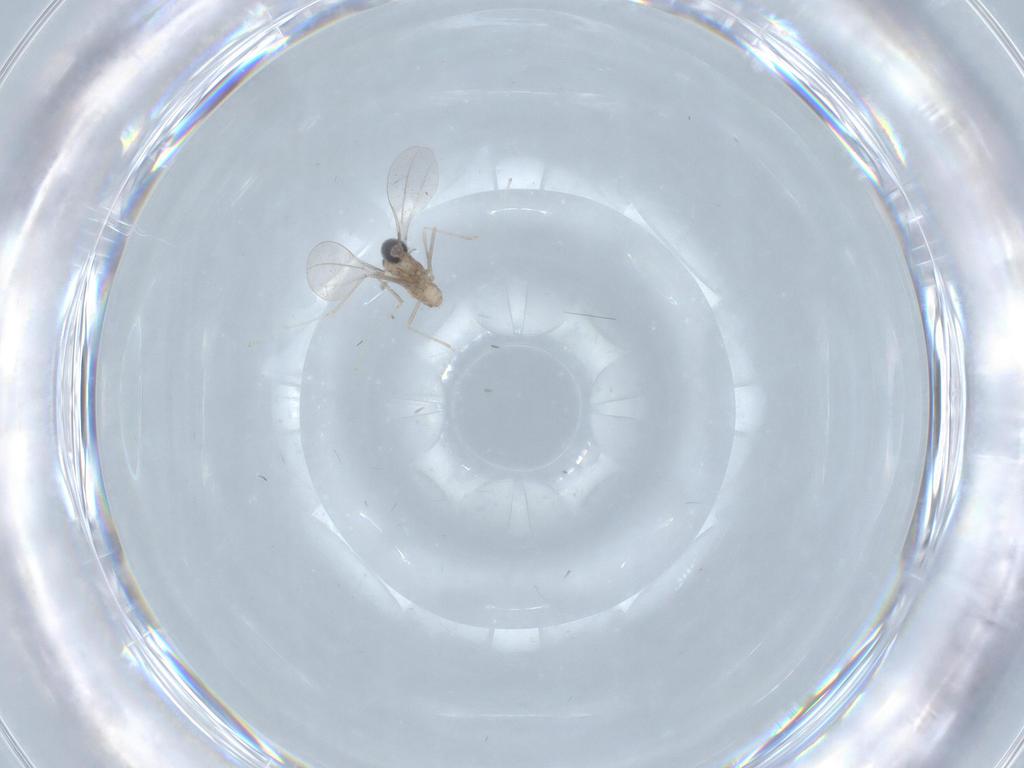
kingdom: Animalia
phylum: Arthropoda
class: Insecta
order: Diptera
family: Cecidomyiidae
